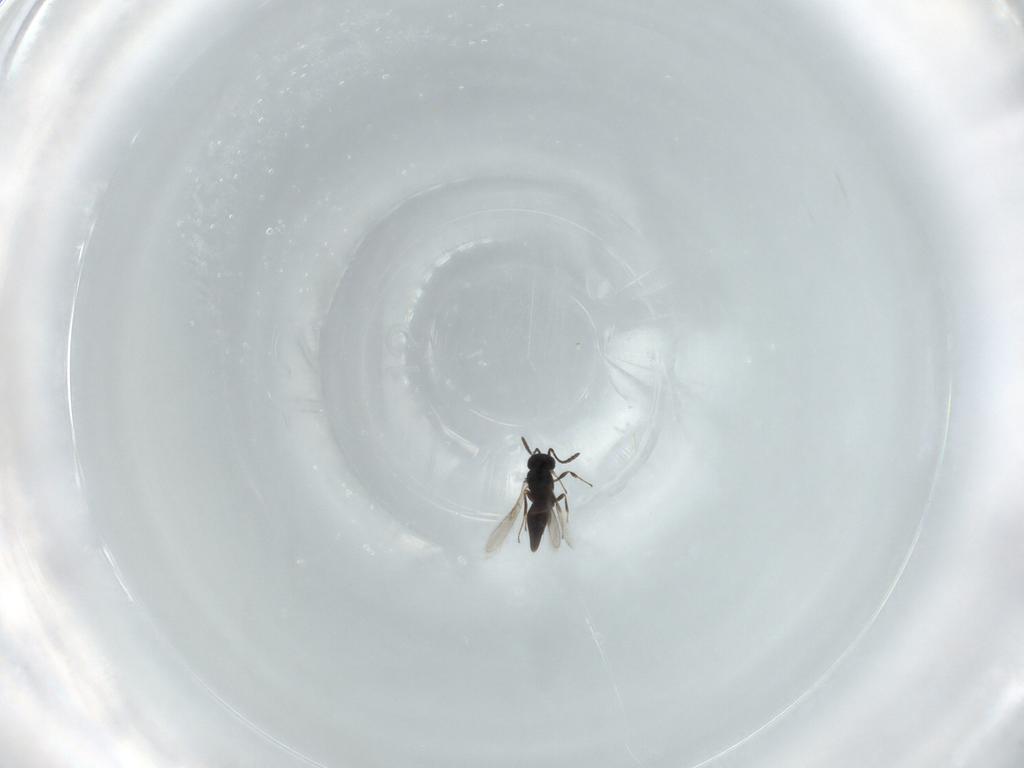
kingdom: Animalia
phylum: Arthropoda
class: Insecta
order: Hymenoptera
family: Scelionidae
